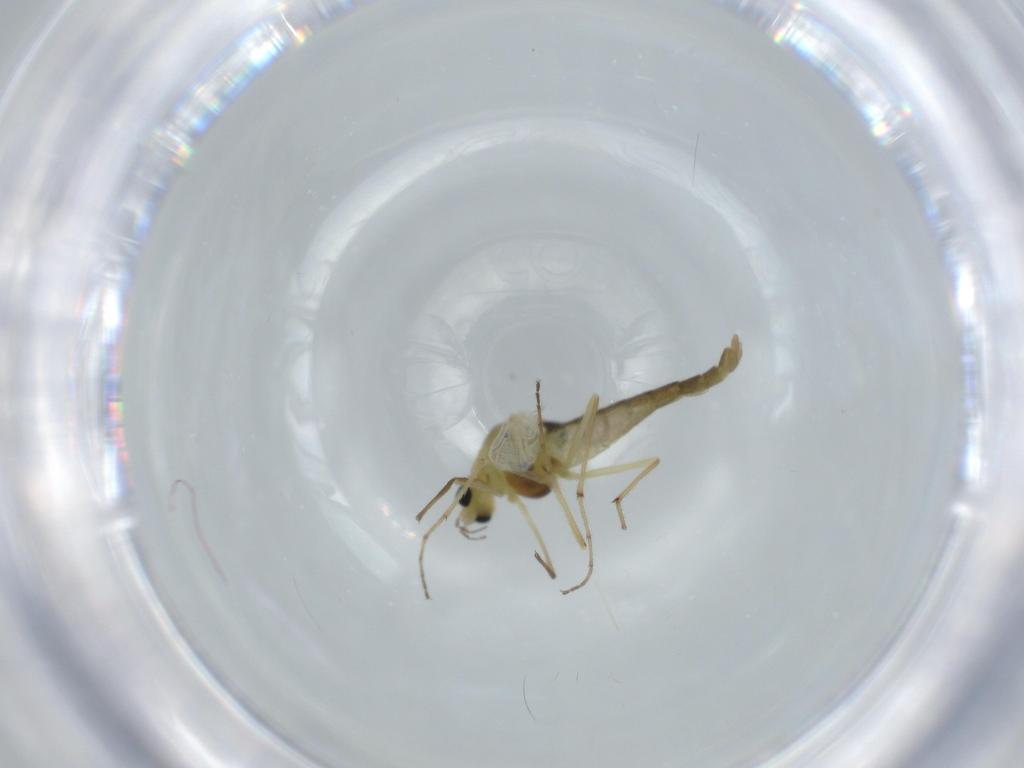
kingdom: Animalia
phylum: Arthropoda
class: Insecta
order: Diptera
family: Chironomidae
